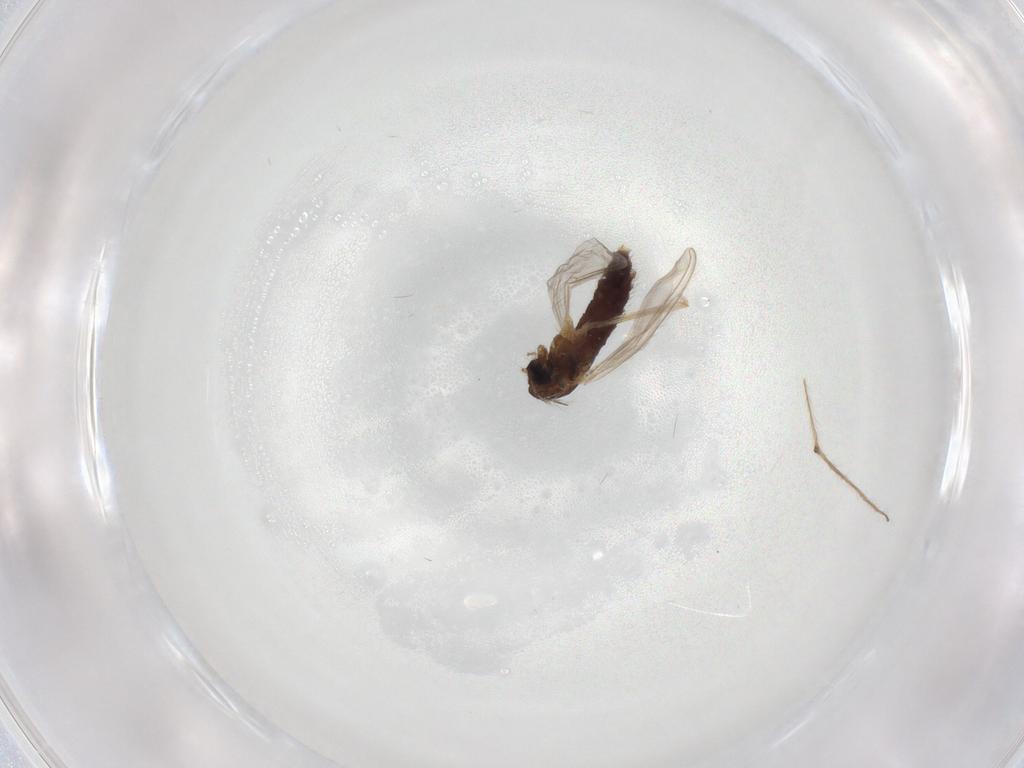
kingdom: Animalia
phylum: Arthropoda
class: Insecta
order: Diptera
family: Chironomidae
